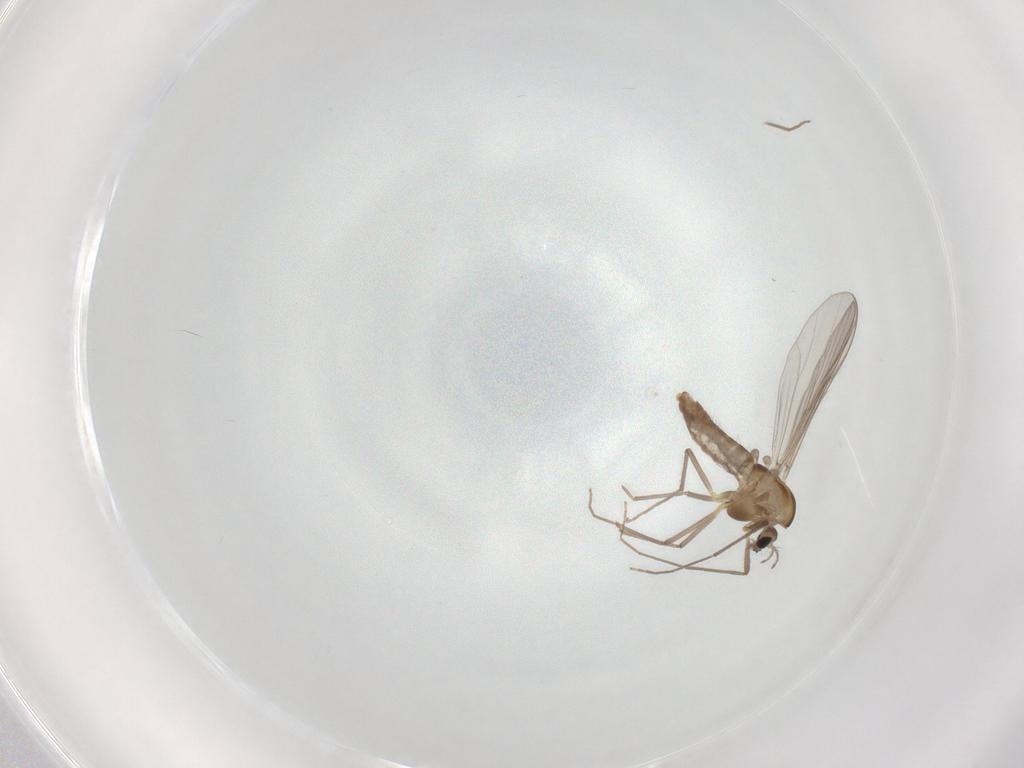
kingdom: Animalia
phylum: Arthropoda
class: Insecta
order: Diptera
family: Chironomidae
